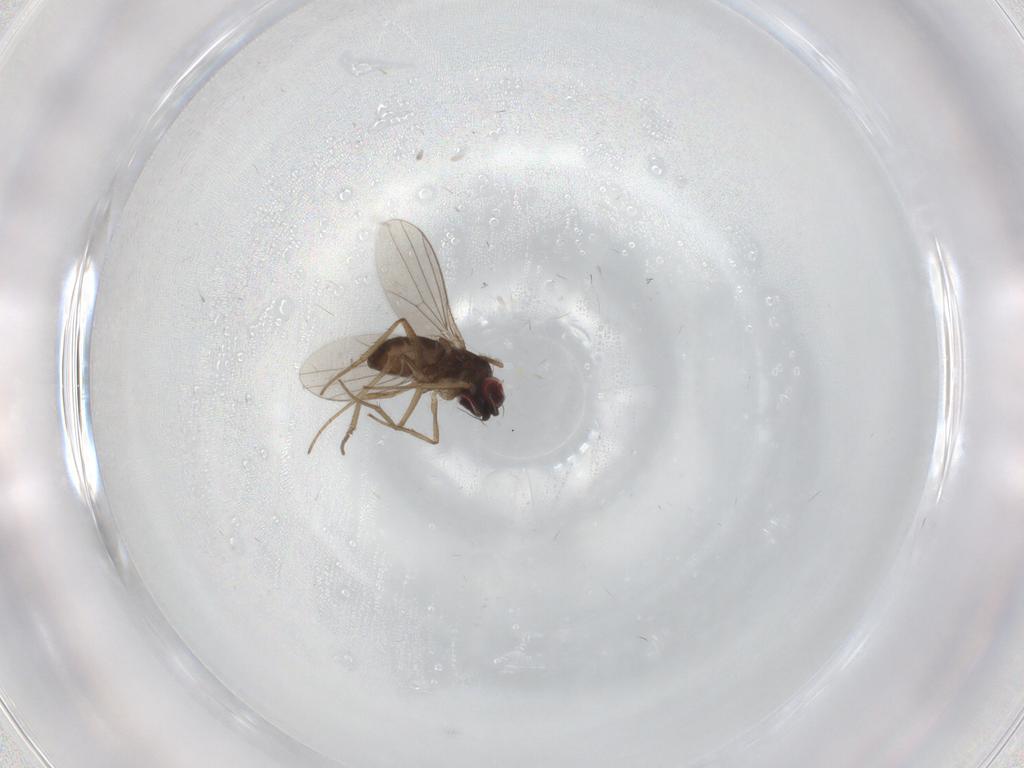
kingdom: Animalia
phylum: Arthropoda
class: Insecta
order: Diptera
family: Dolichopodidae
